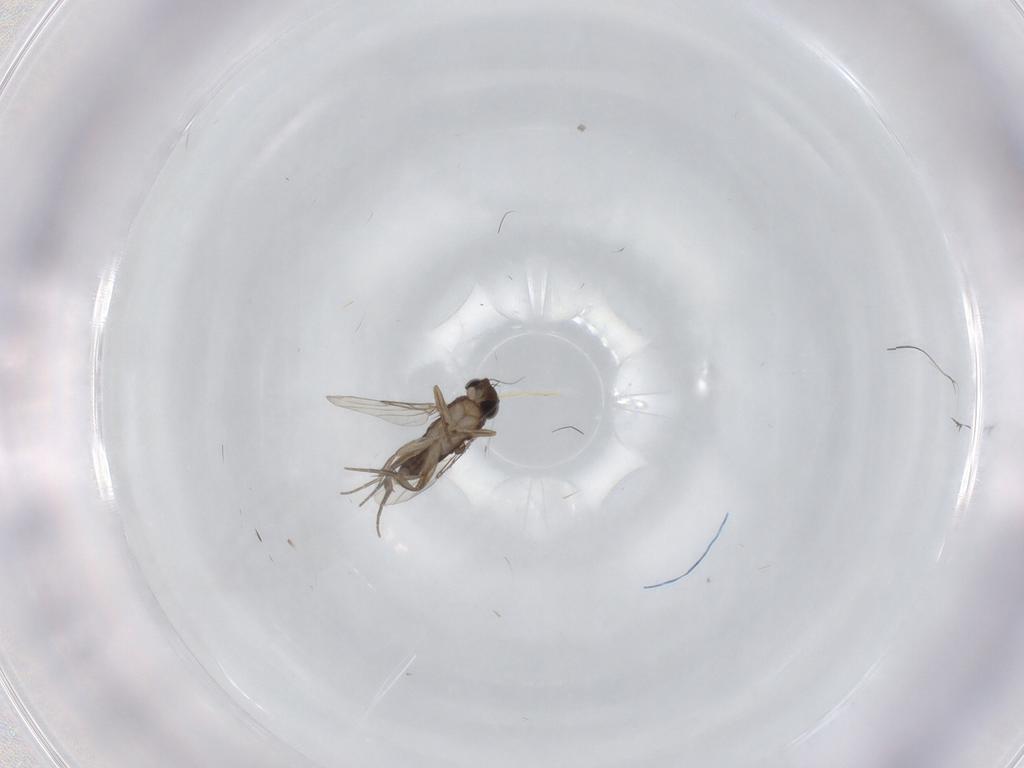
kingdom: Animalia
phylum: Arthropoda
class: Insecta
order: Diptera
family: Phoridae
